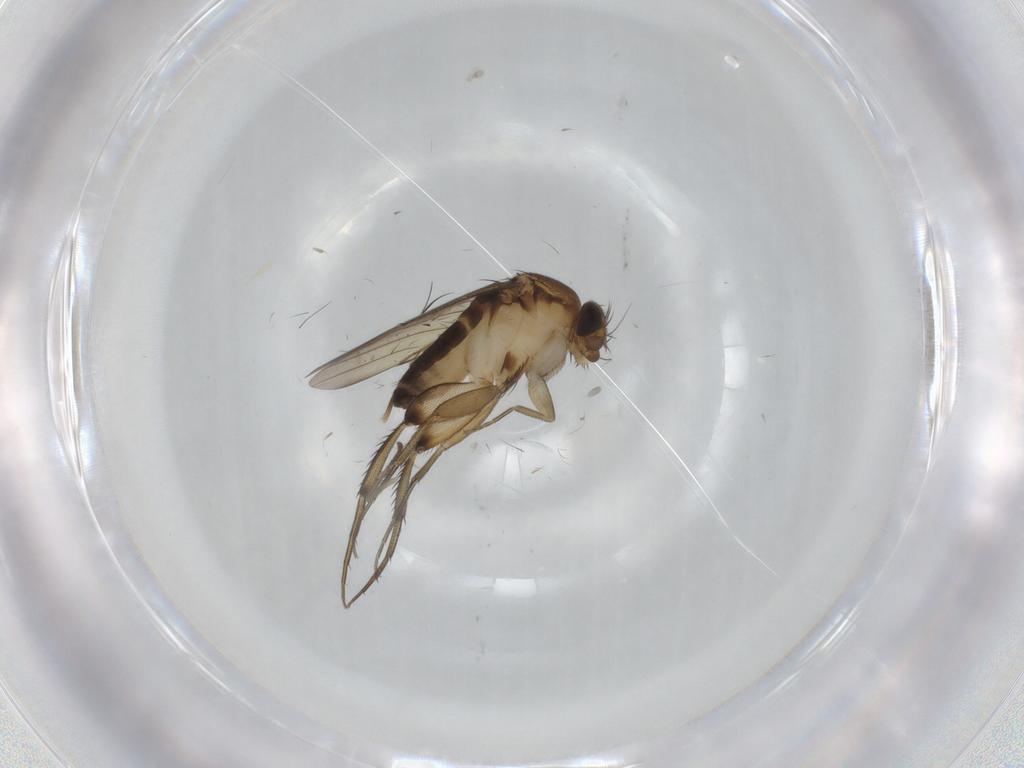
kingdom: Animalia
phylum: Arthropoda
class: Insecta
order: Diptera
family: Phoridae
